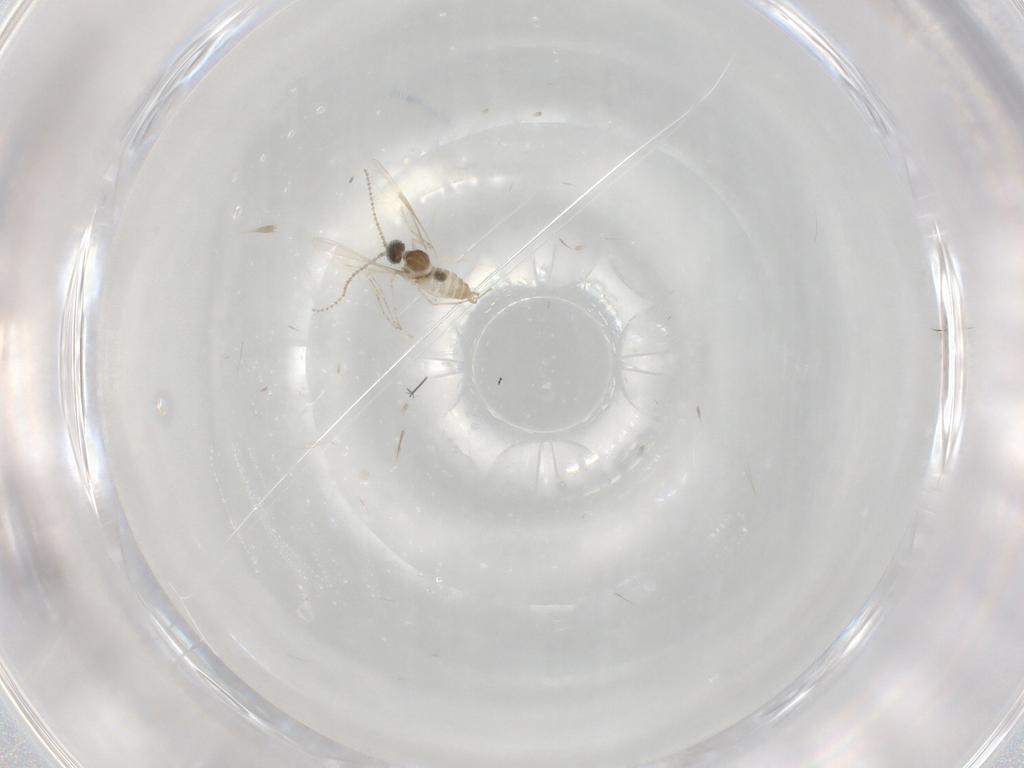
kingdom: Animalia
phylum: Arthropoda
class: Insecta
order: Diptera
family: Cecidomyiidae
